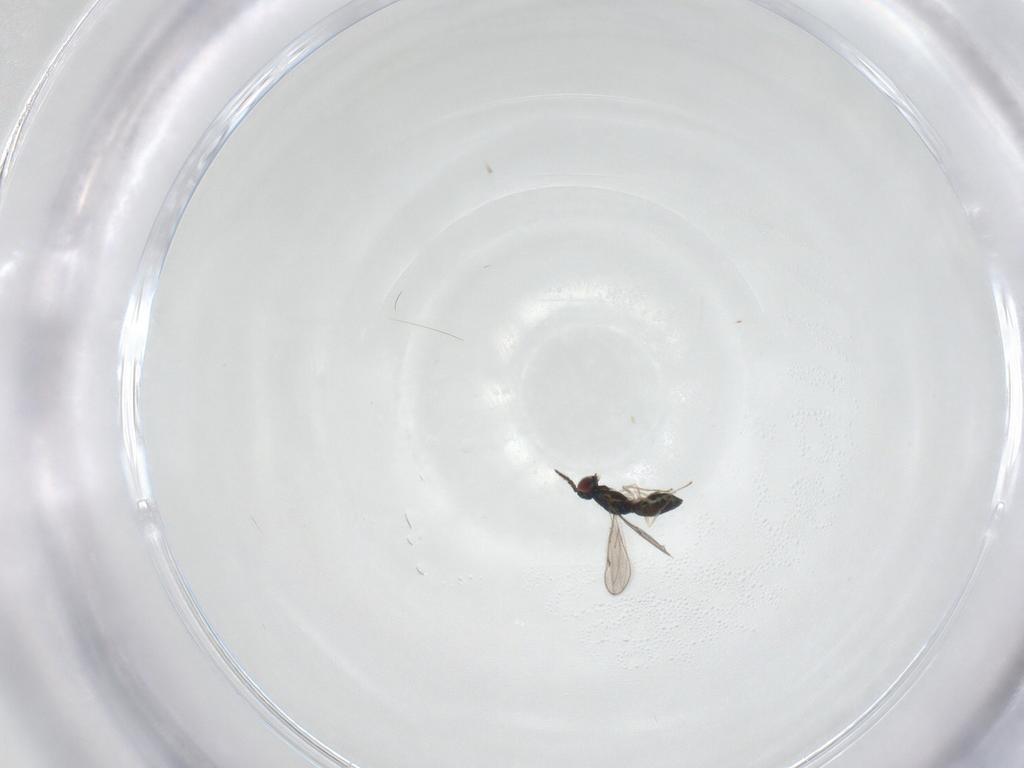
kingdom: Animalia
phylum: Arthropoda
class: Insecta
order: Hymenoptera
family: Eulophidae
